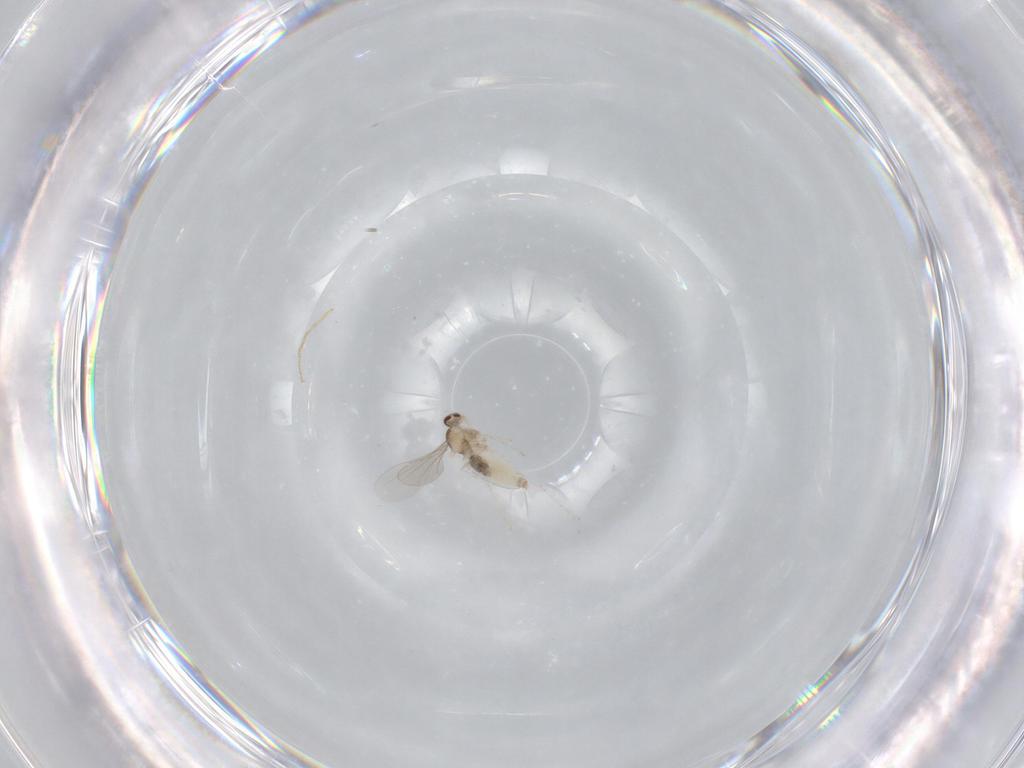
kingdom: Animalia
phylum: Arthropoda
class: Insecta
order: Diptera
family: Cecidomyiidae
